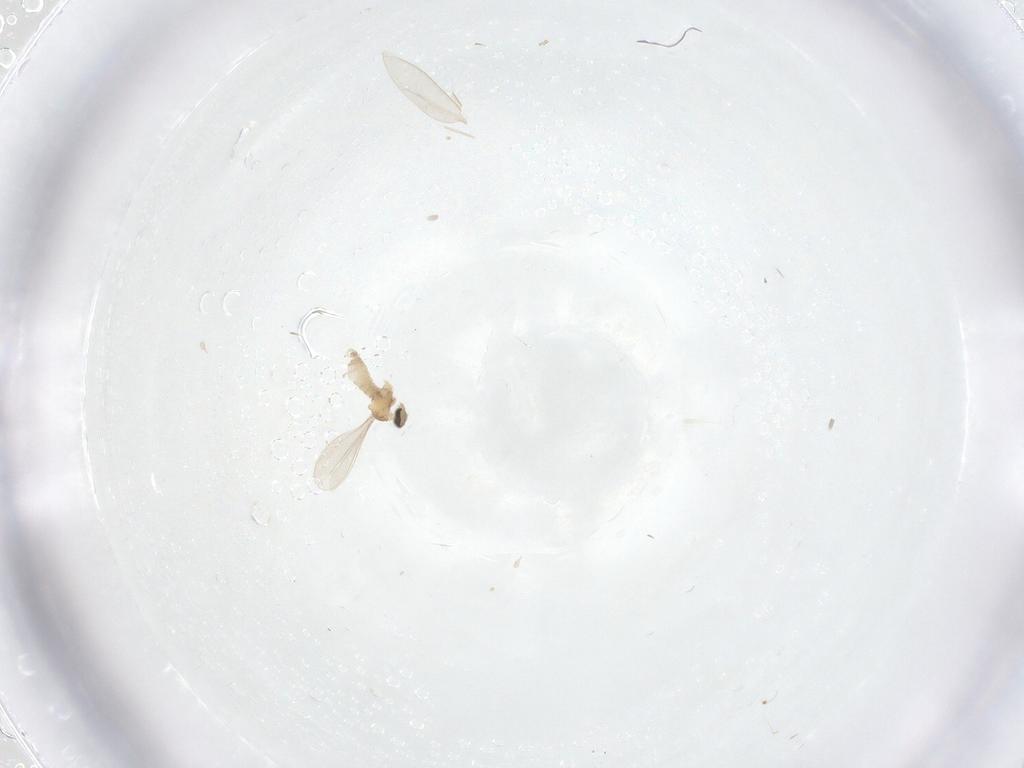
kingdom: Animalia
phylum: Arthropoda
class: Insecta
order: Diptera
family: Cecidomyiidae
